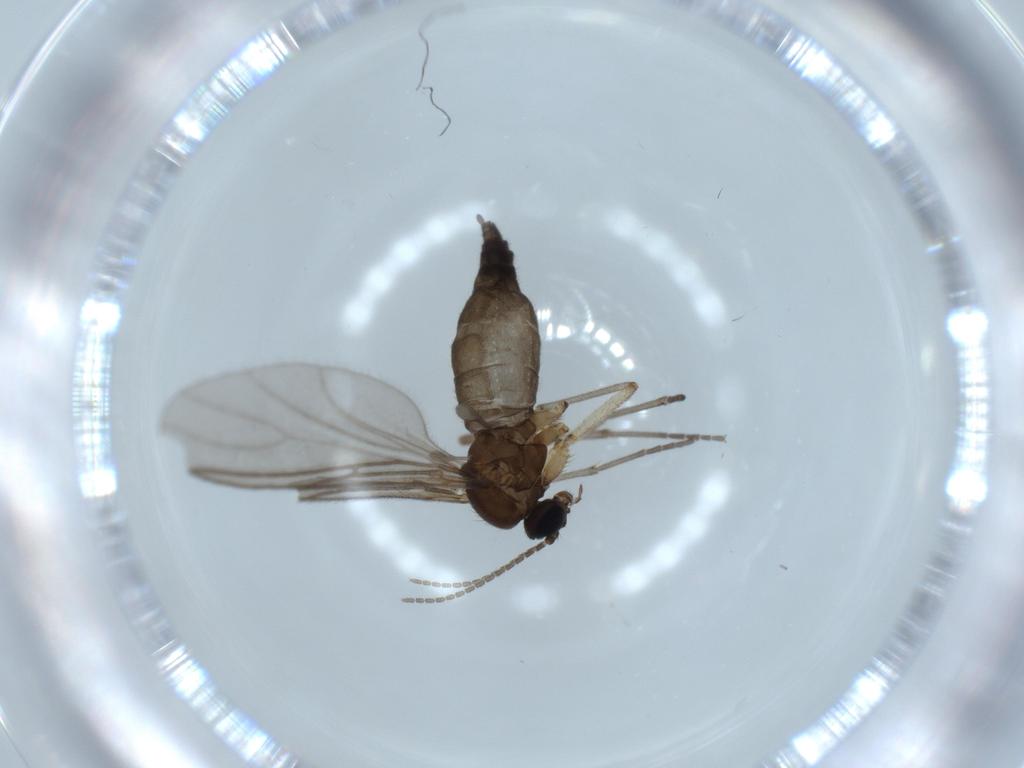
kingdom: Animalia
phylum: Arthropoda
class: Insecta
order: Diptera
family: Sciaridae
